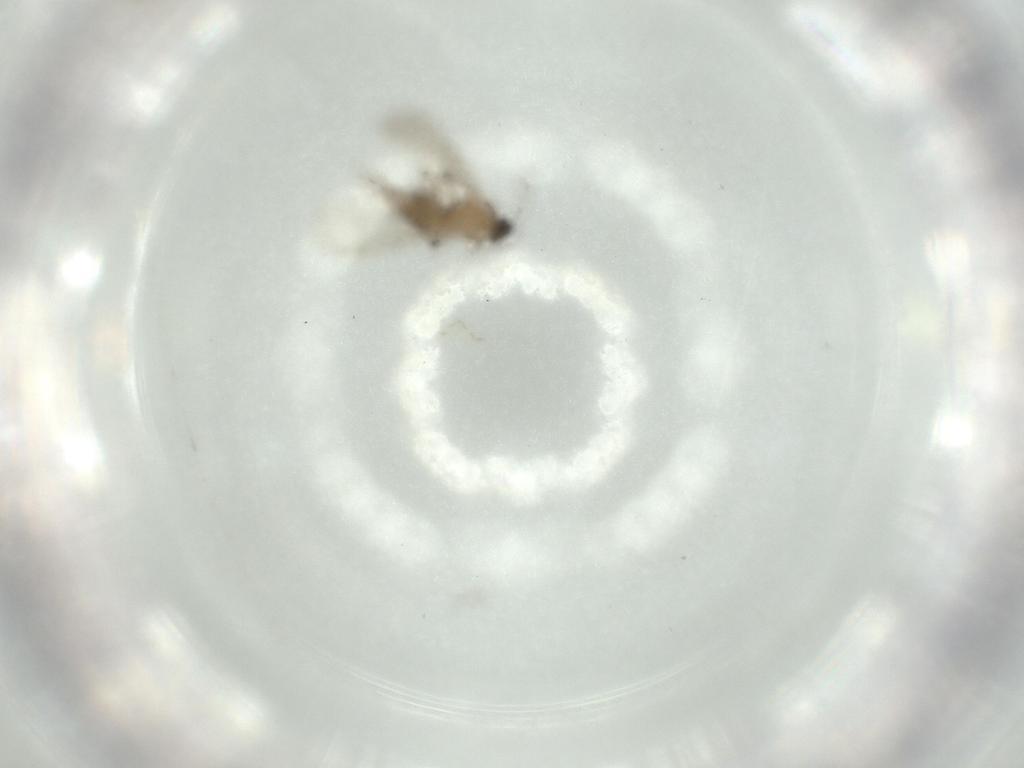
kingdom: Animalia
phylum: Arthropoda
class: Insecta
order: Diptera
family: Sciaridae
